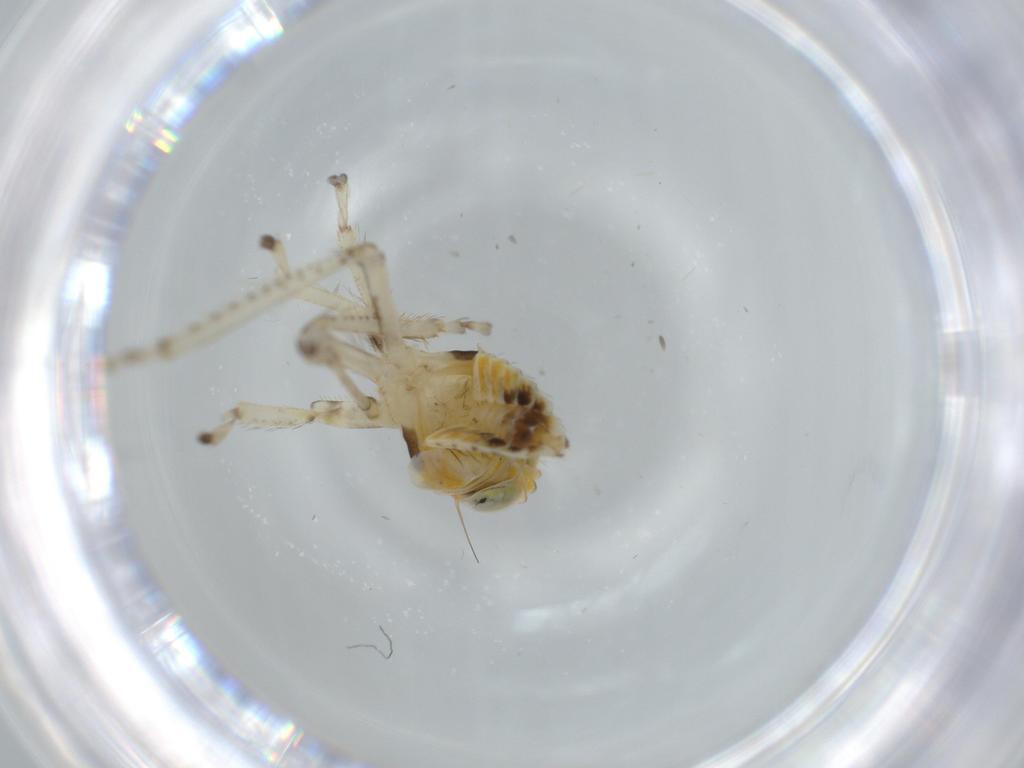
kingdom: Animalia
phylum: Arthropoda
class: Insecta
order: Hemiptera
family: Cicadellidae
